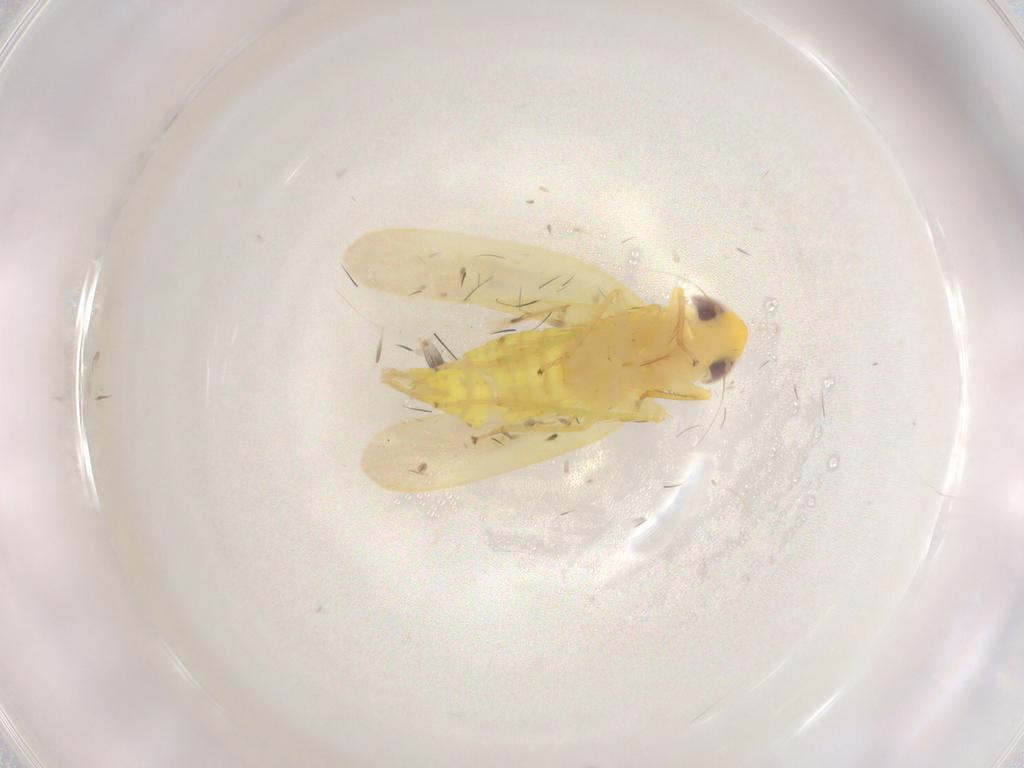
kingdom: Animalia
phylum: Arthropoda
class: Insecta
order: Hemiptera
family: Cicadellidae
